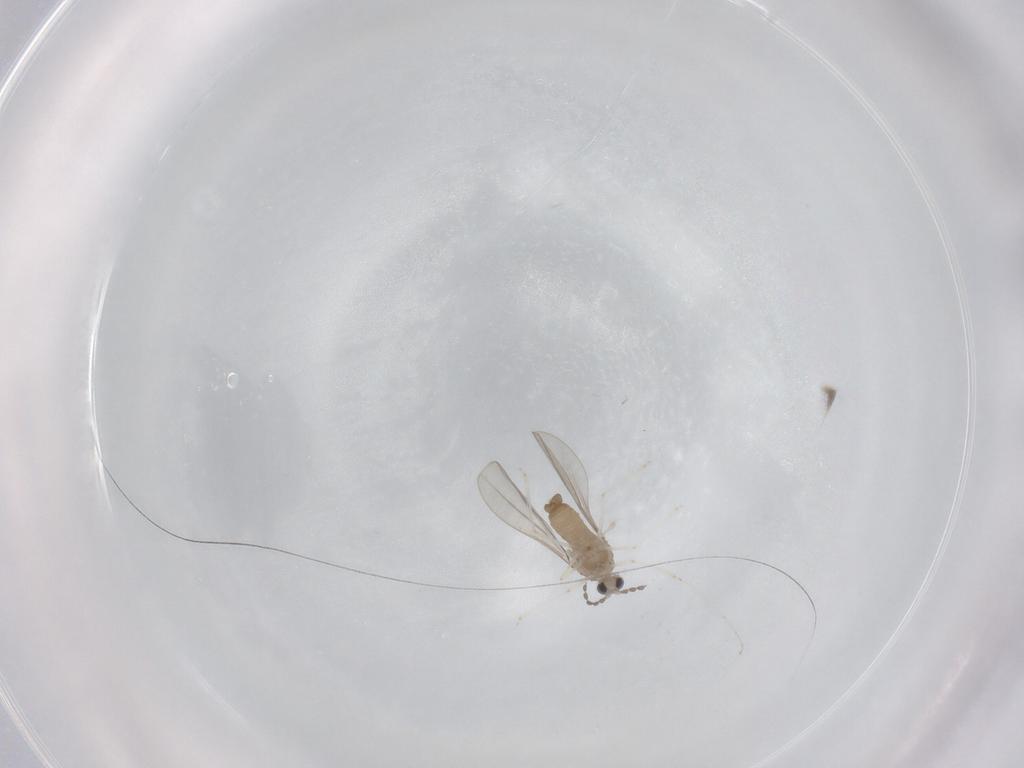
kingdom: Animalia
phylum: Arthropoda
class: Insecta
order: Diptera
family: Cecidomyiidae
